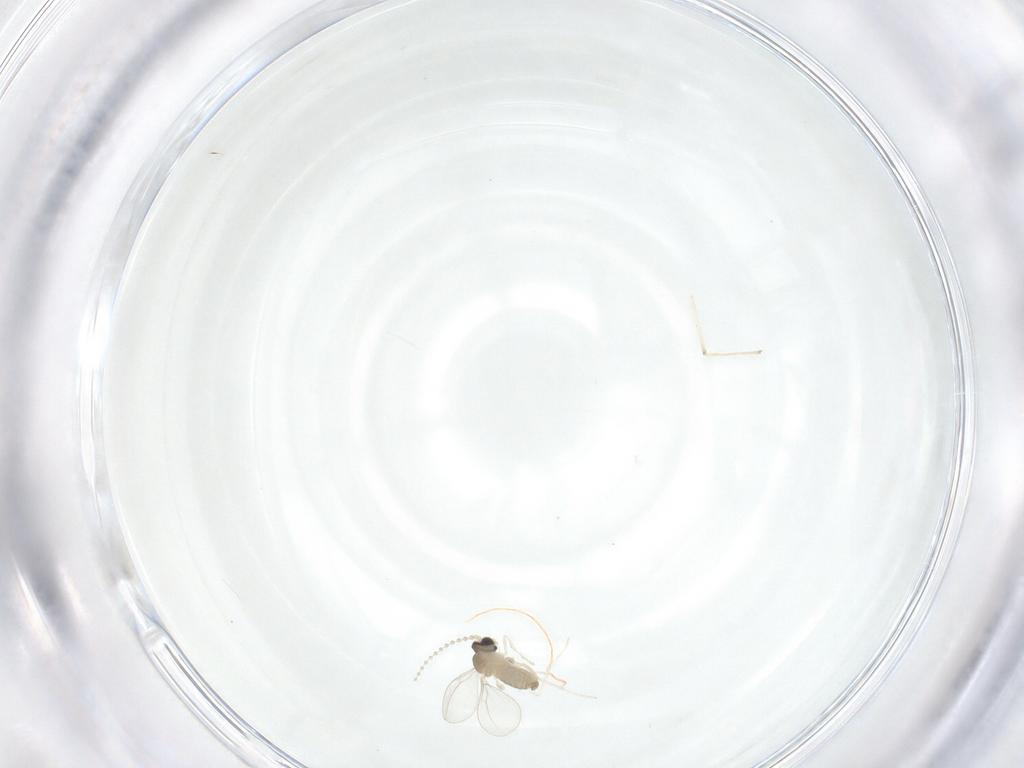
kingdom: Animalia
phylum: Arthropoda
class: Insecta
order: Diptera
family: Cecidomyiidae
